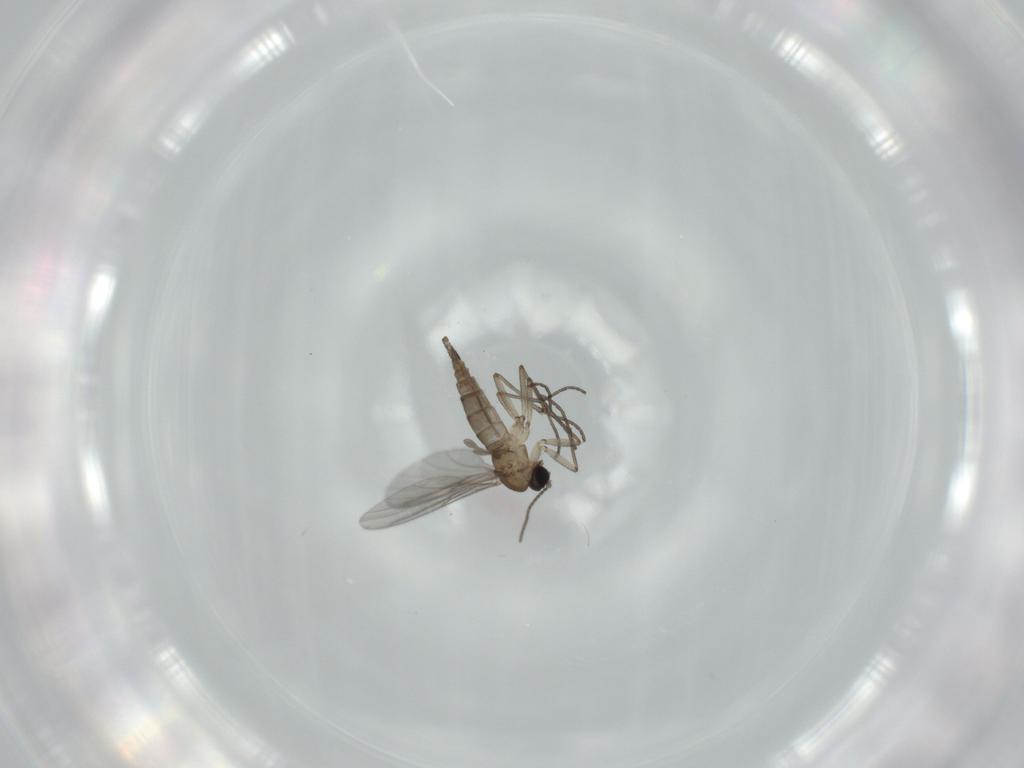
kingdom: Animalia
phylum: Arthropoda
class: Insecta
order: Diptera
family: Sciaridae
